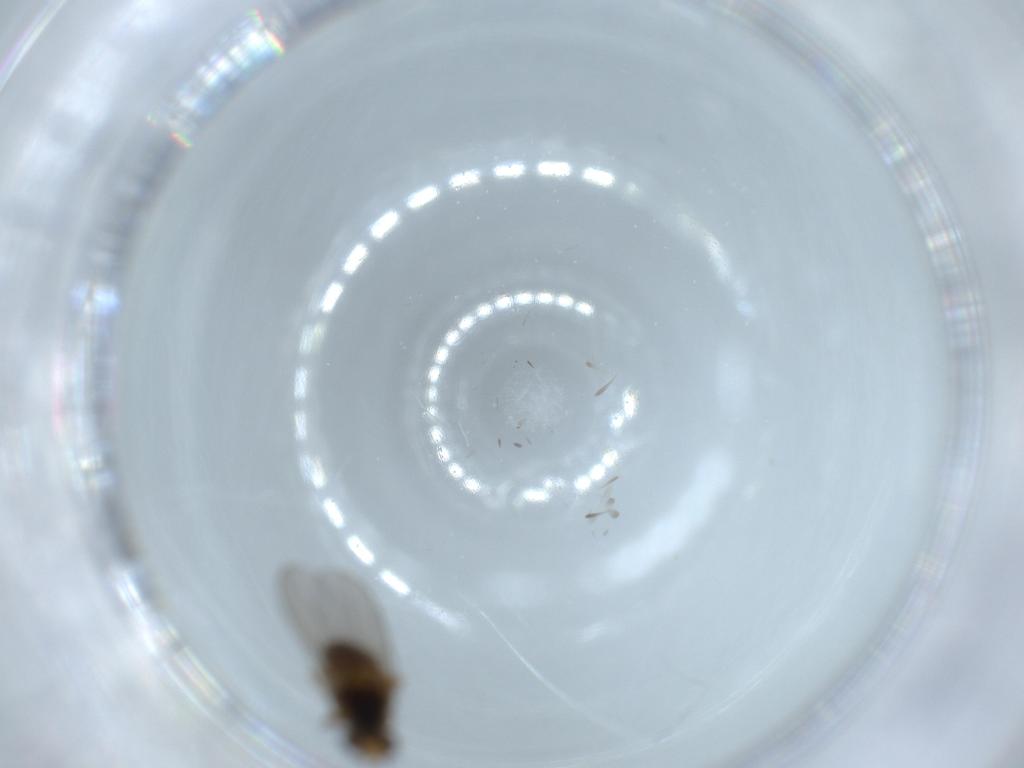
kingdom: Animalia
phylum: Arthropoda
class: Insecta
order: Diptera
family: Chloropidae
